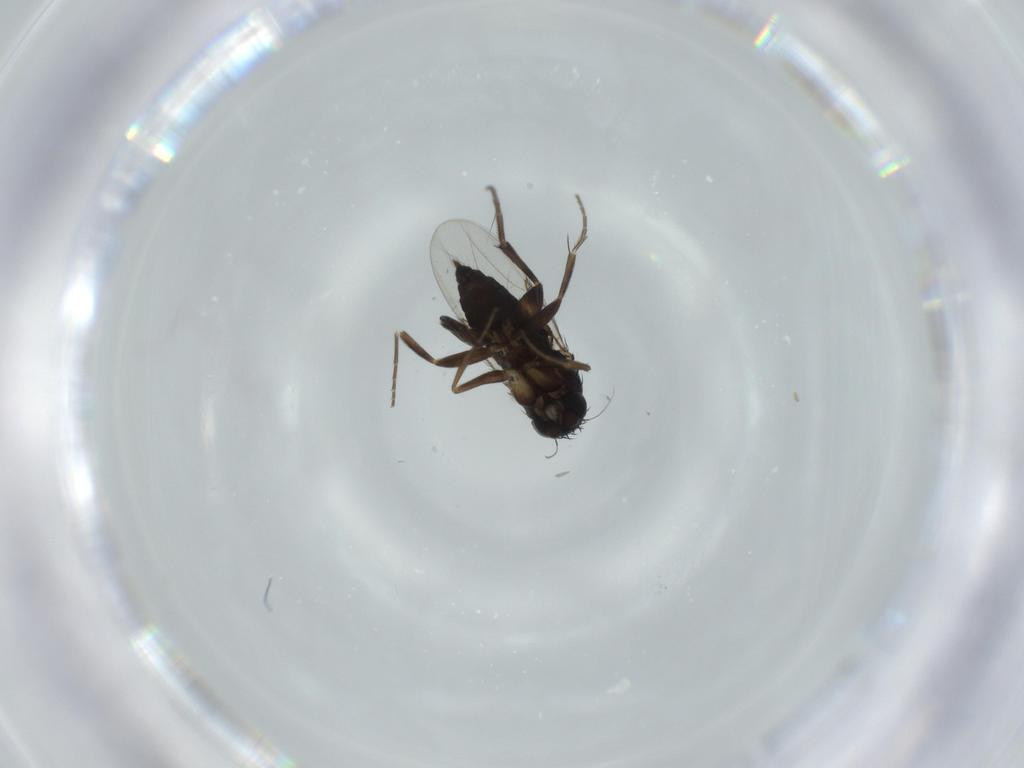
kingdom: Animalia
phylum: Arthropoda
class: Insecta
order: Diptera
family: Phoridae
